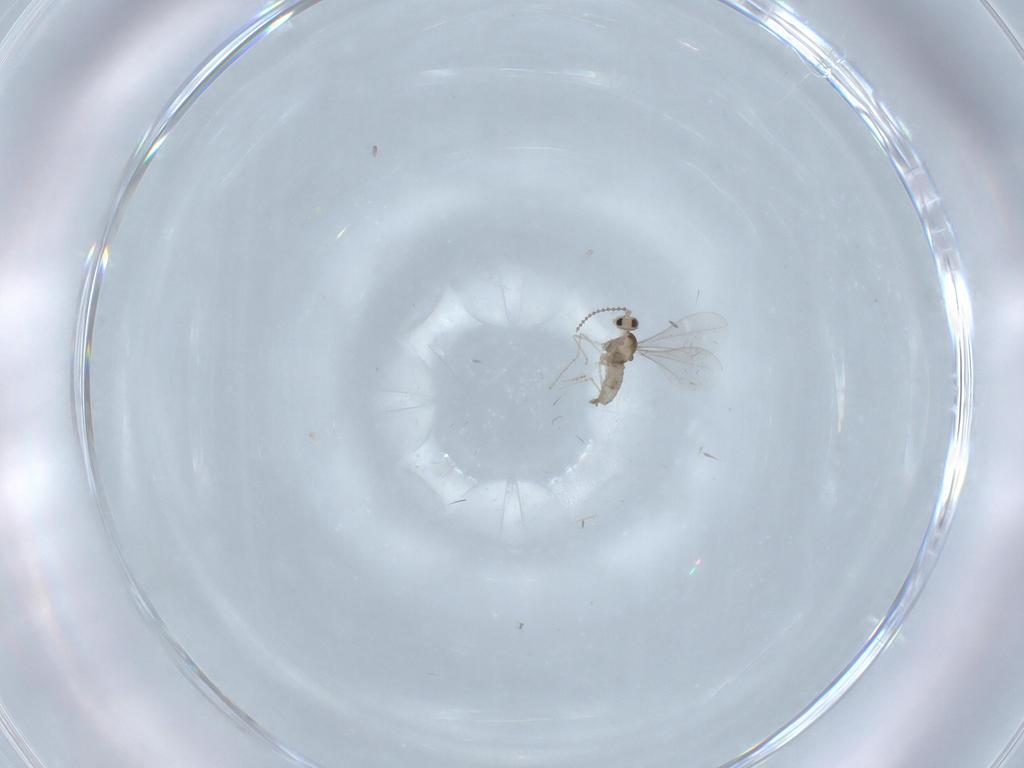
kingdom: Animalia
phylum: Arthropoda
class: Insecta
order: Diptera
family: Cecidomyiidae
